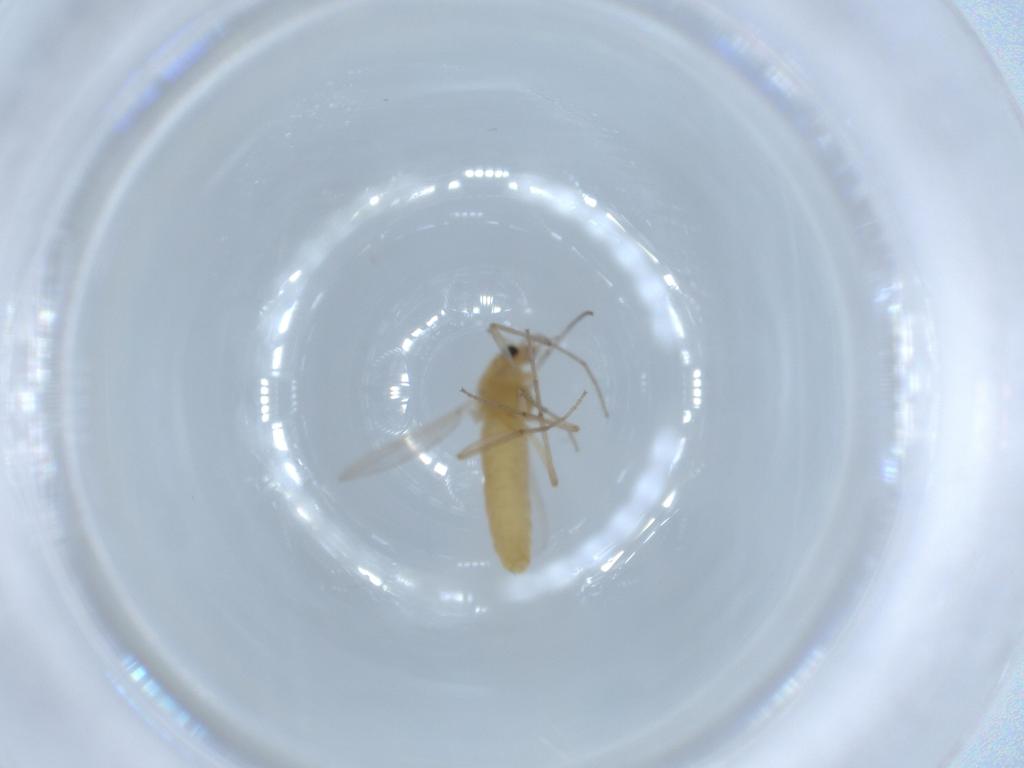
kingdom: Animalia
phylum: Arthropoda
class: Insecta
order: Diptera
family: Chironomidae
